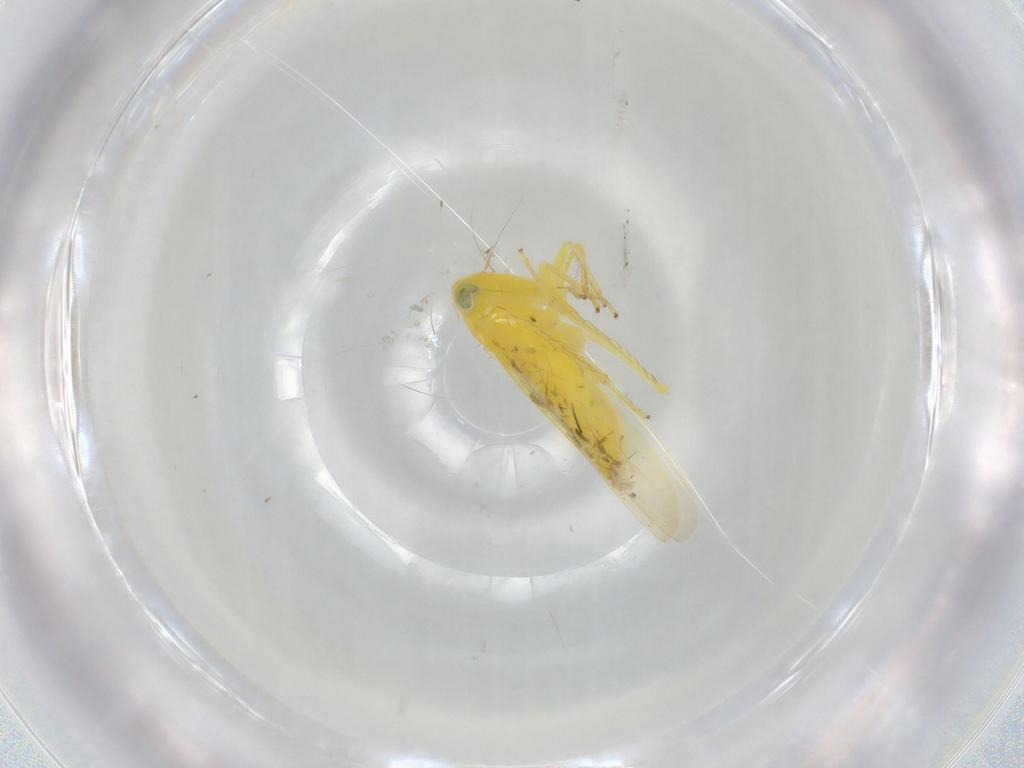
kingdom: Animalia
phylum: Arthropoda
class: Insecta
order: Hemiptera
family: Cicadellidae
